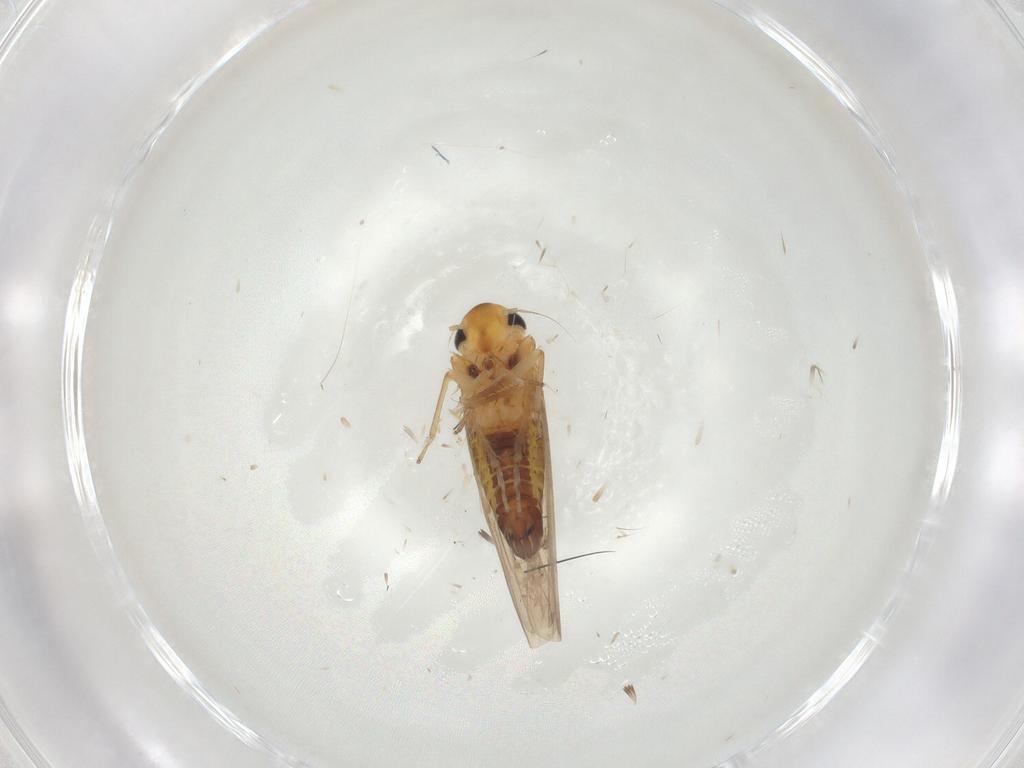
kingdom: Animalia
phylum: Arthropoda
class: Insecta
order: Hemiptera
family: Cicadellidae
